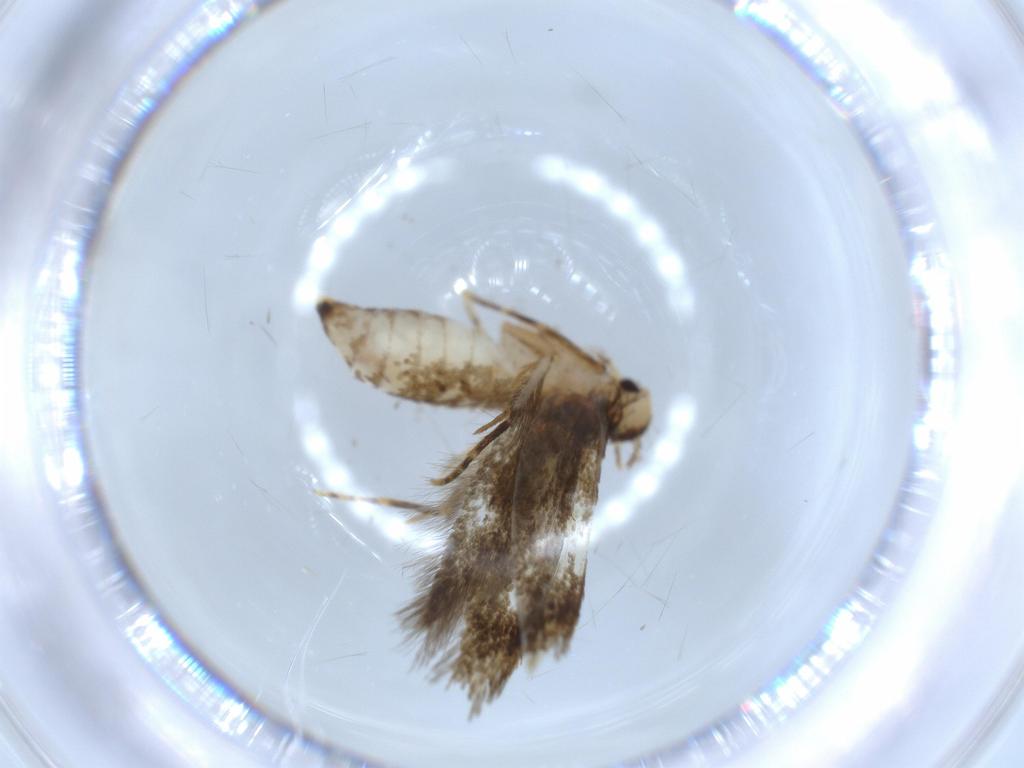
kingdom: Animalia
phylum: Arthropoda
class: Insecta
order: Lepidoptera
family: Tineidae
